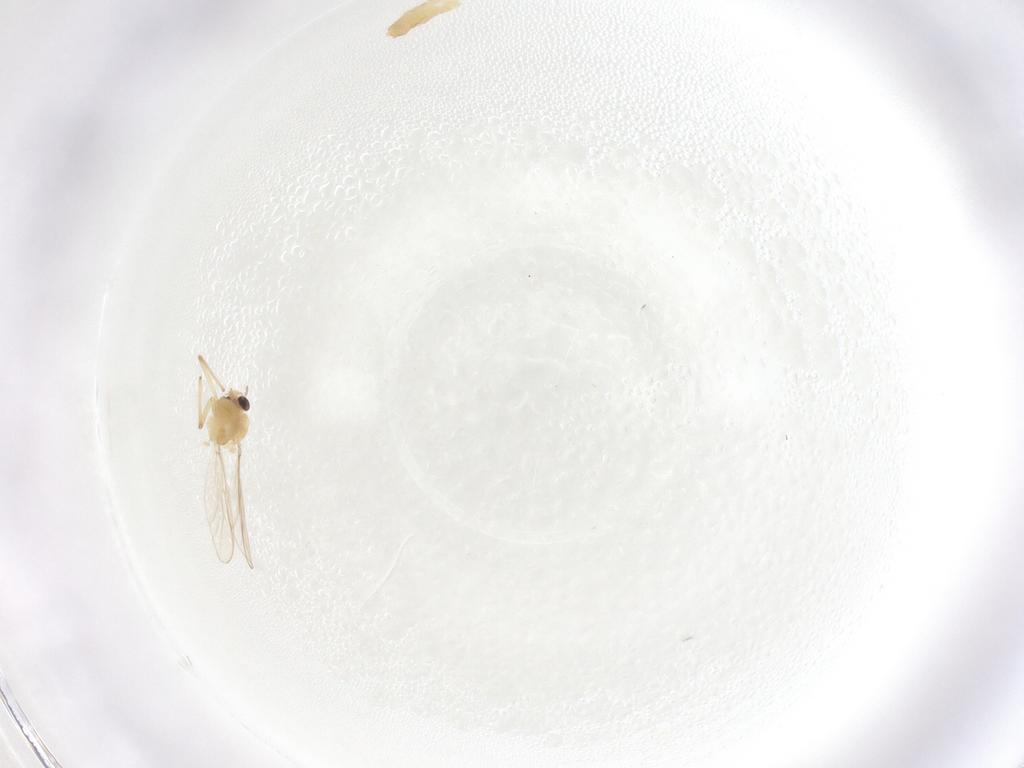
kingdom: Animalia
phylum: Arthropoda
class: Insecta
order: Diptera
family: Chironomidae
